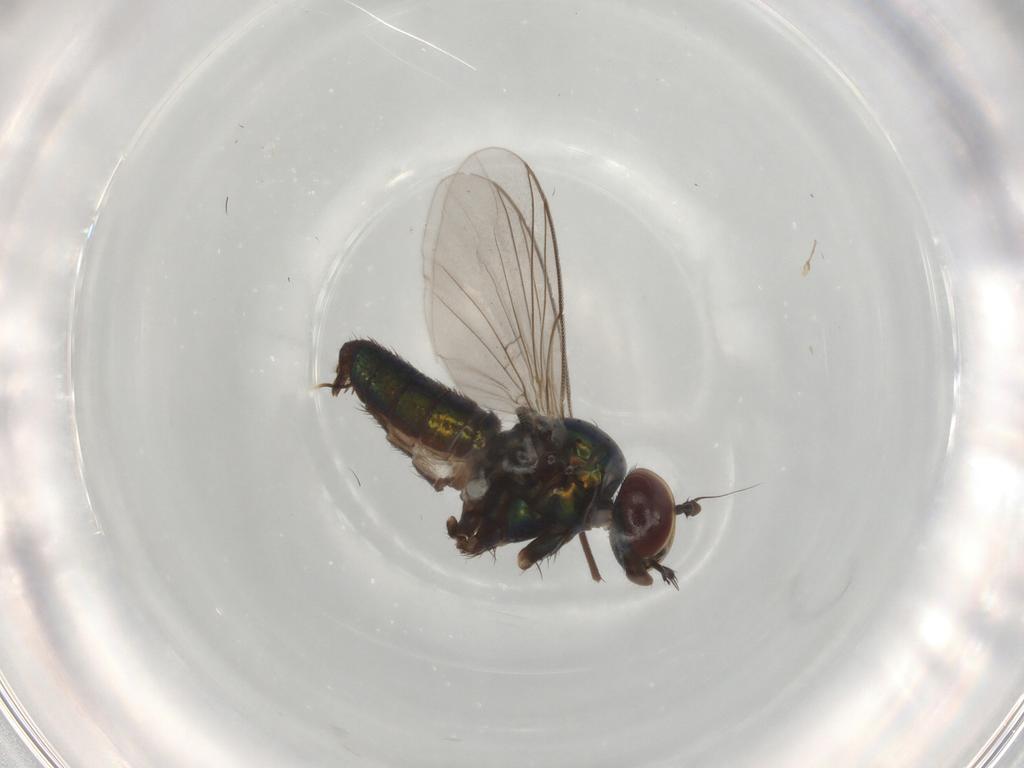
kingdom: Animalia
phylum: Arthropoda
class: Insecta
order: Diptera
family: Dolichopodidae
